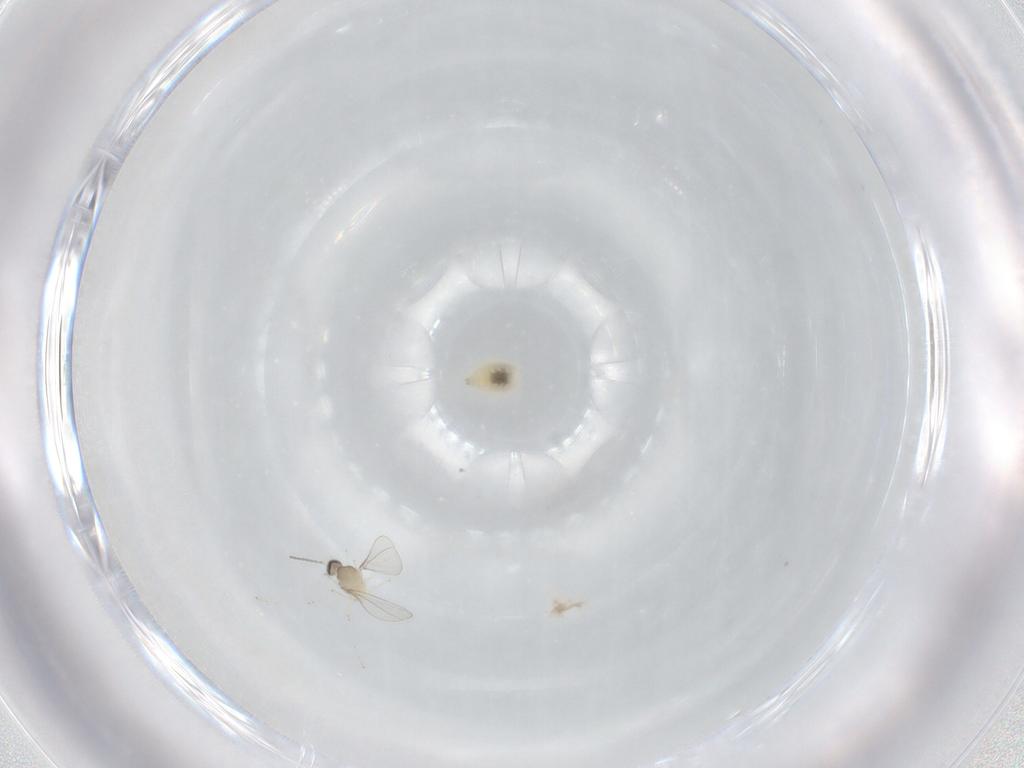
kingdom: Animalia
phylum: Arthropoda
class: Insecta
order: Diptera
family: Cecidomyiidae
